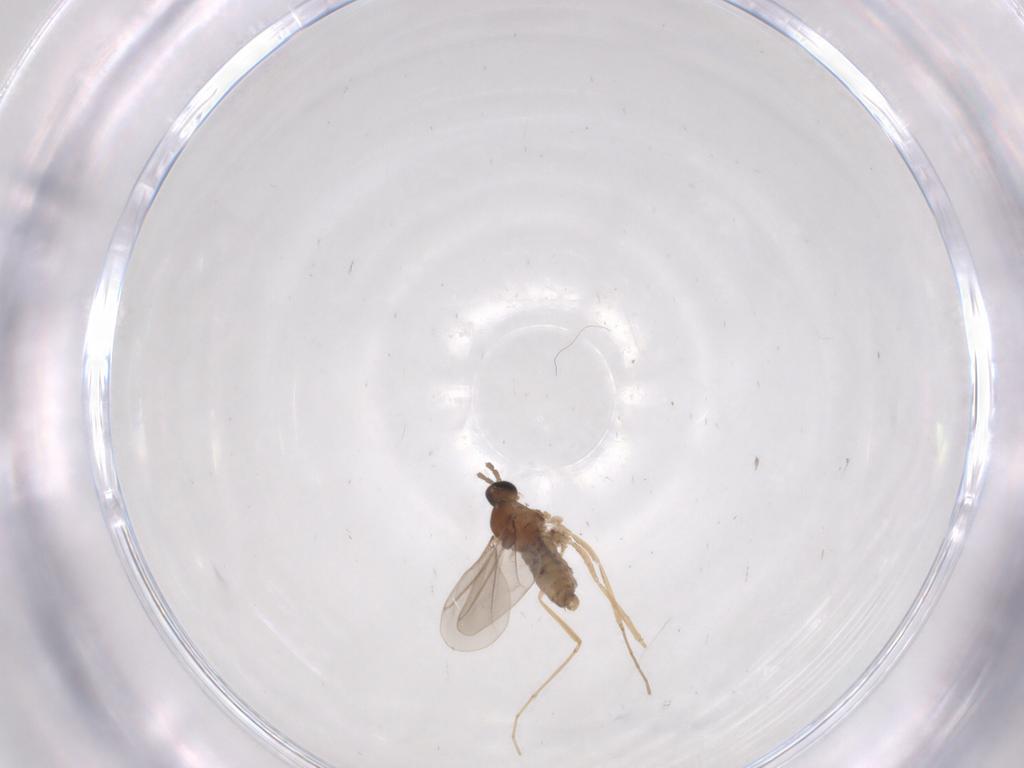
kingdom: Animalia
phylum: Arthropoda
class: Insecta
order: Diptera
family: Cecidomyiidae
